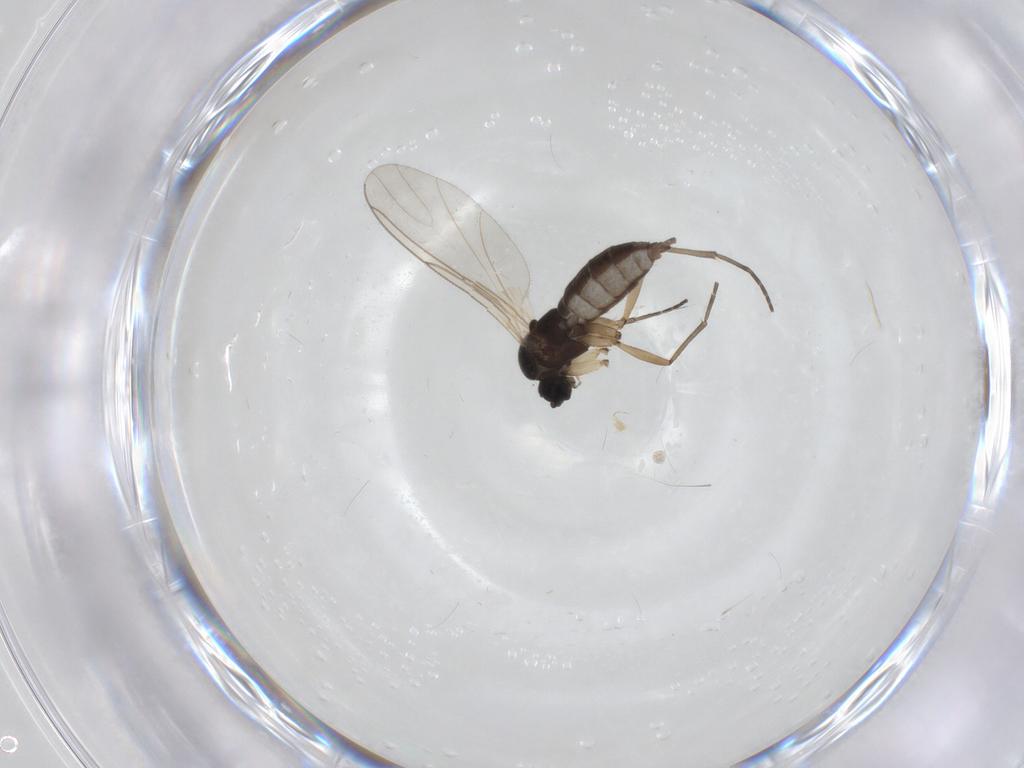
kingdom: Animalia
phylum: Arthropoda
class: Insecta
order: Diptera
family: Sciaridae
